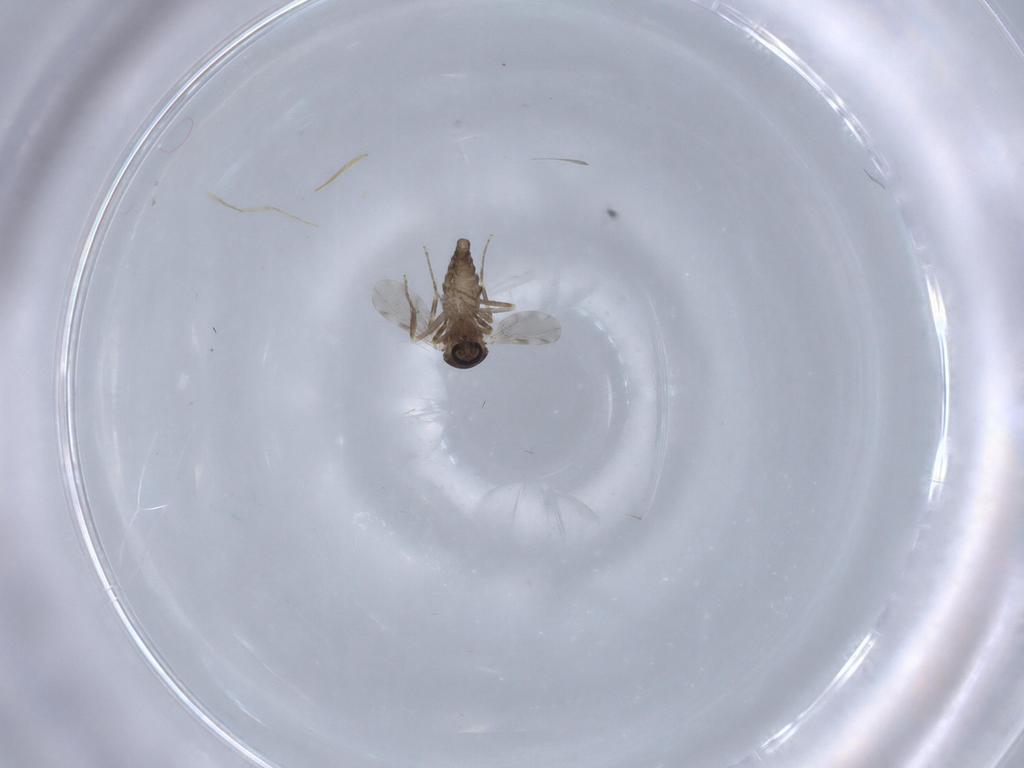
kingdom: Animalia
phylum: Arthropoda
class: Insecta
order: Diptera
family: Ceratopogonidae
